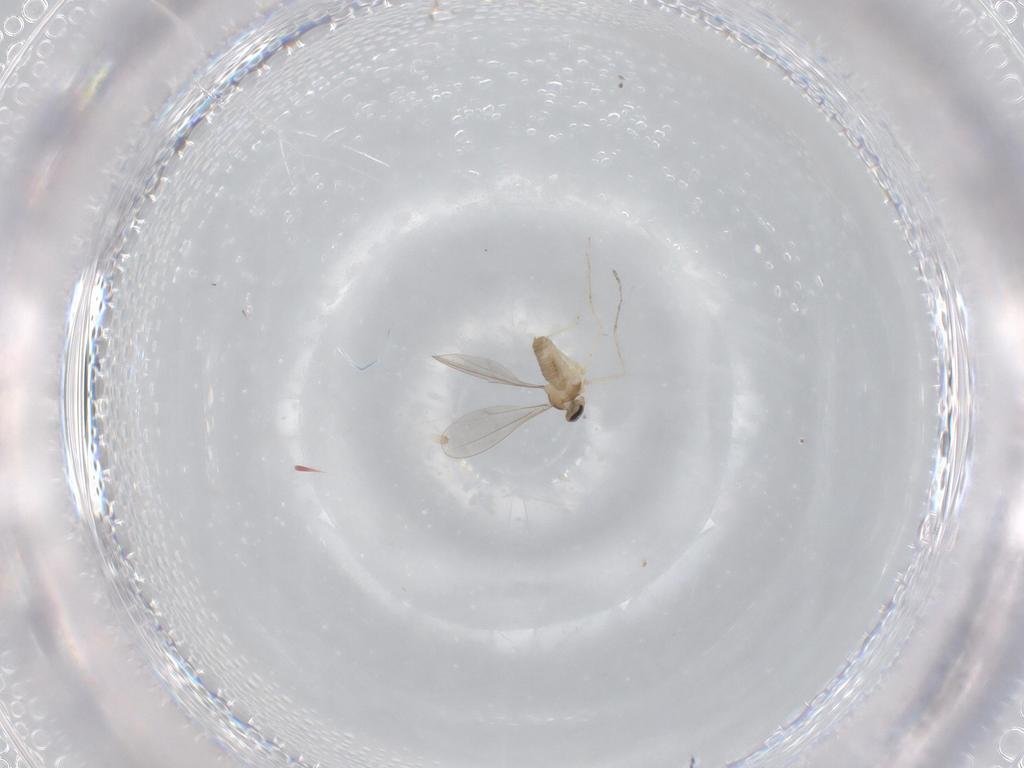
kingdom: Animalia
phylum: Arthropoda
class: Insecta
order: Diptera
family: Cecidomyiidae
